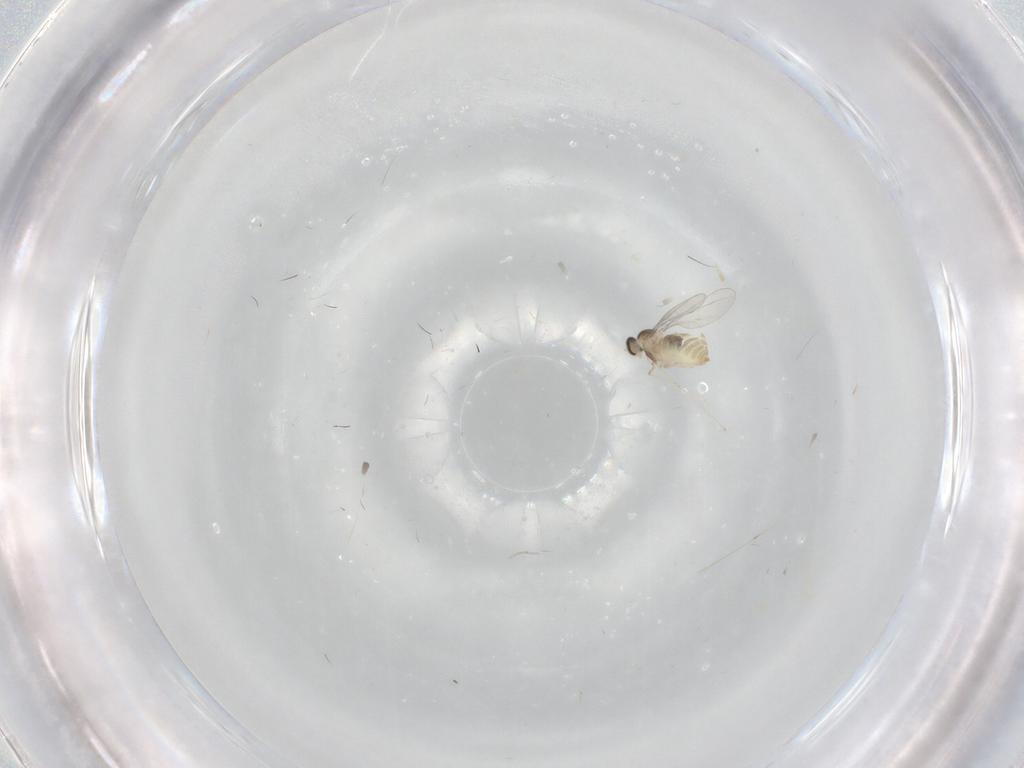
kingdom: Animalia
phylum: Arthropoda
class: Insecta
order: Diptera
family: Cecidomyiidae
